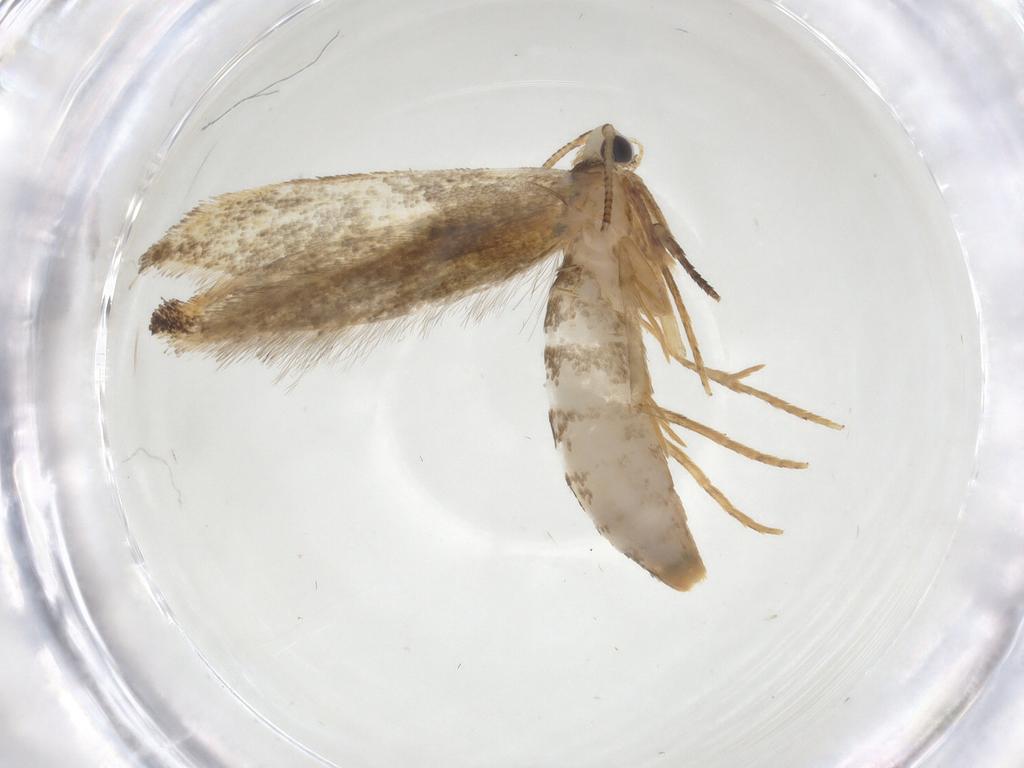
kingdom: Animalia
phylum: Arthropoda
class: Insecta
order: Lepidoptera
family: Tineidae
